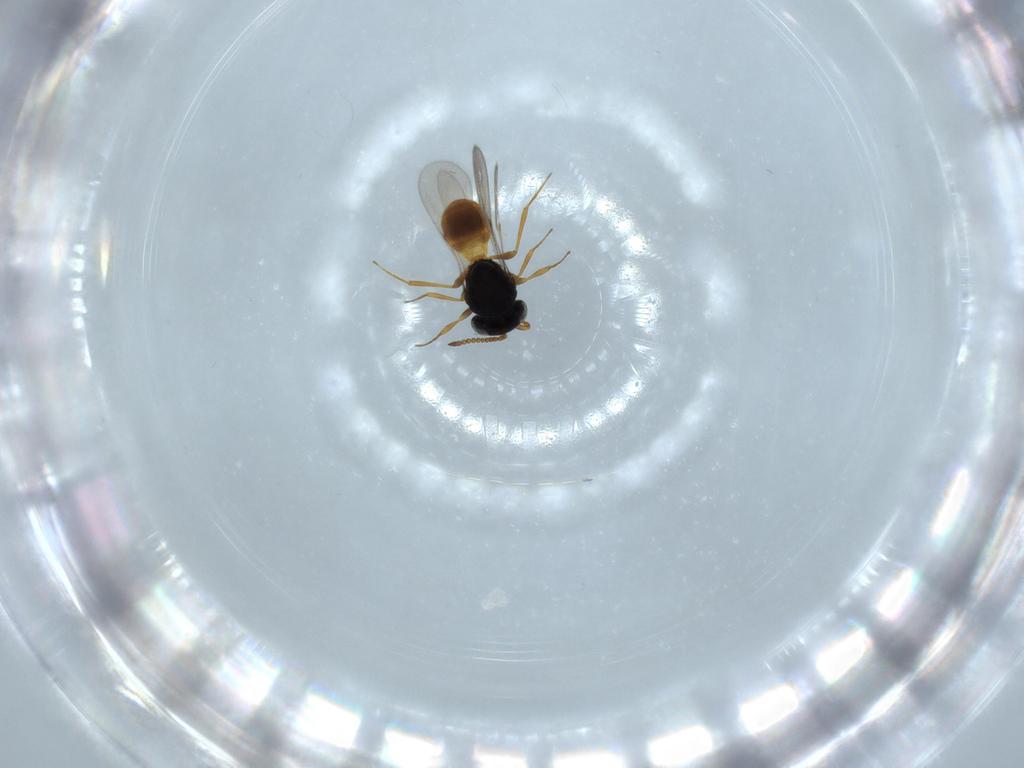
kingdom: Animalia
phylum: Arthropoda
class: Insecta
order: Hymenoptera
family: Scelionidae
